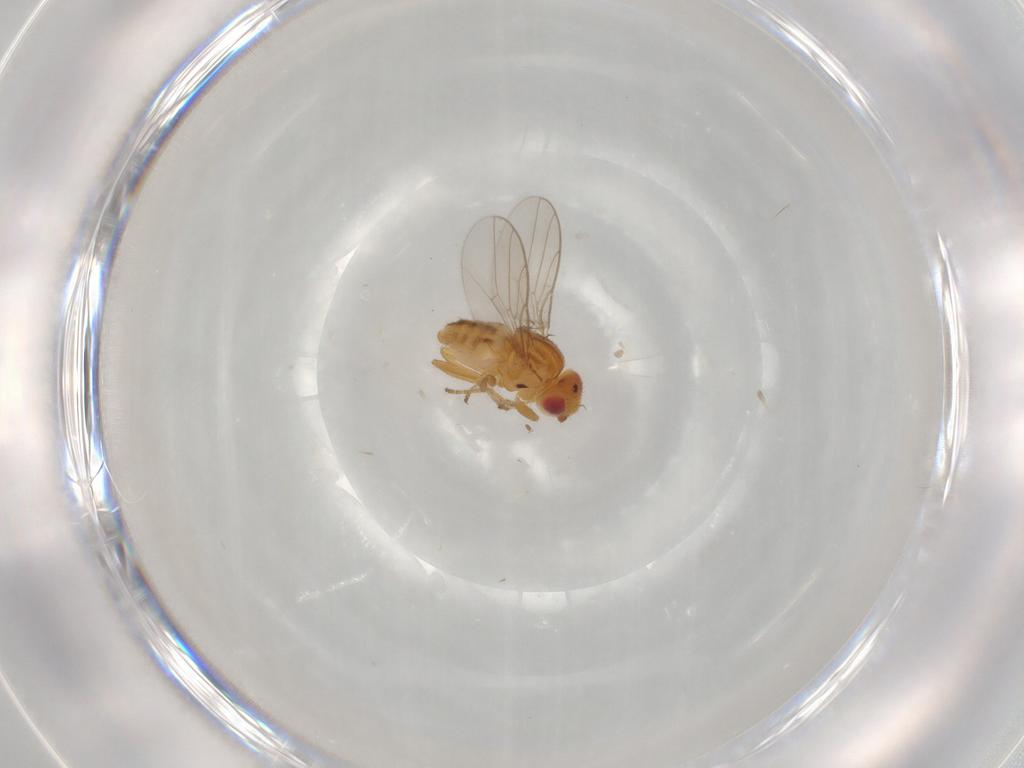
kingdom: Animalia
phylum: Arthropoda
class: Insecta
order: Diptera
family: Chloropidae
